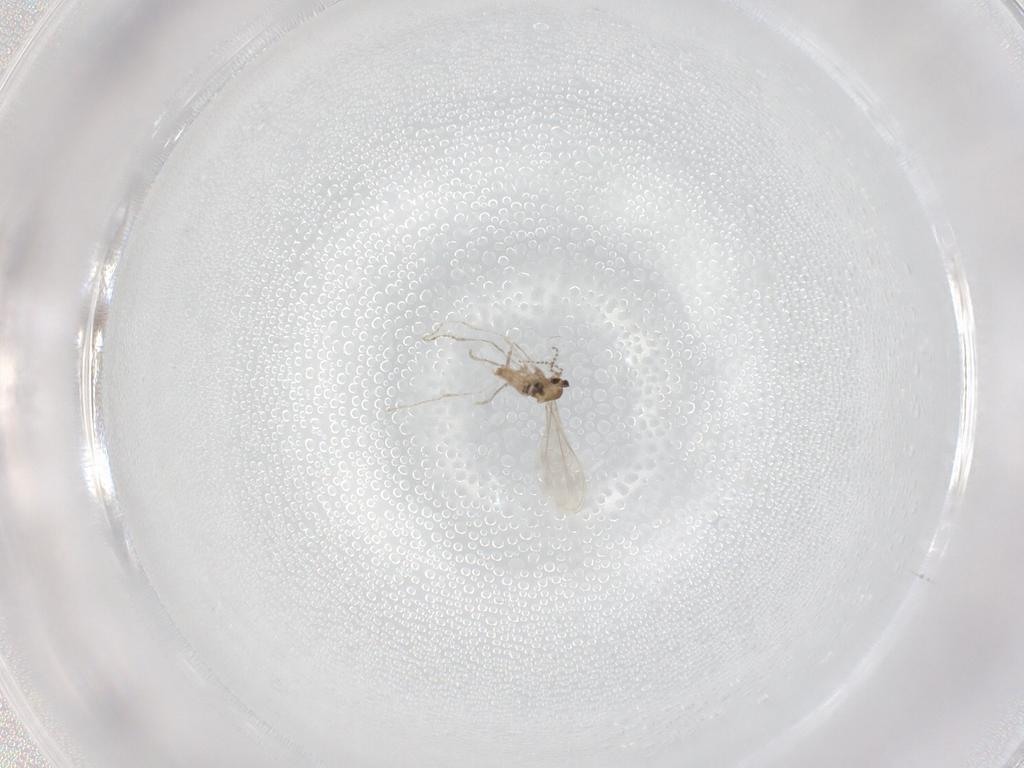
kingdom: Animalia
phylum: Arthropoda
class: Insecta
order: Diptera
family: Cecidomyiidae
